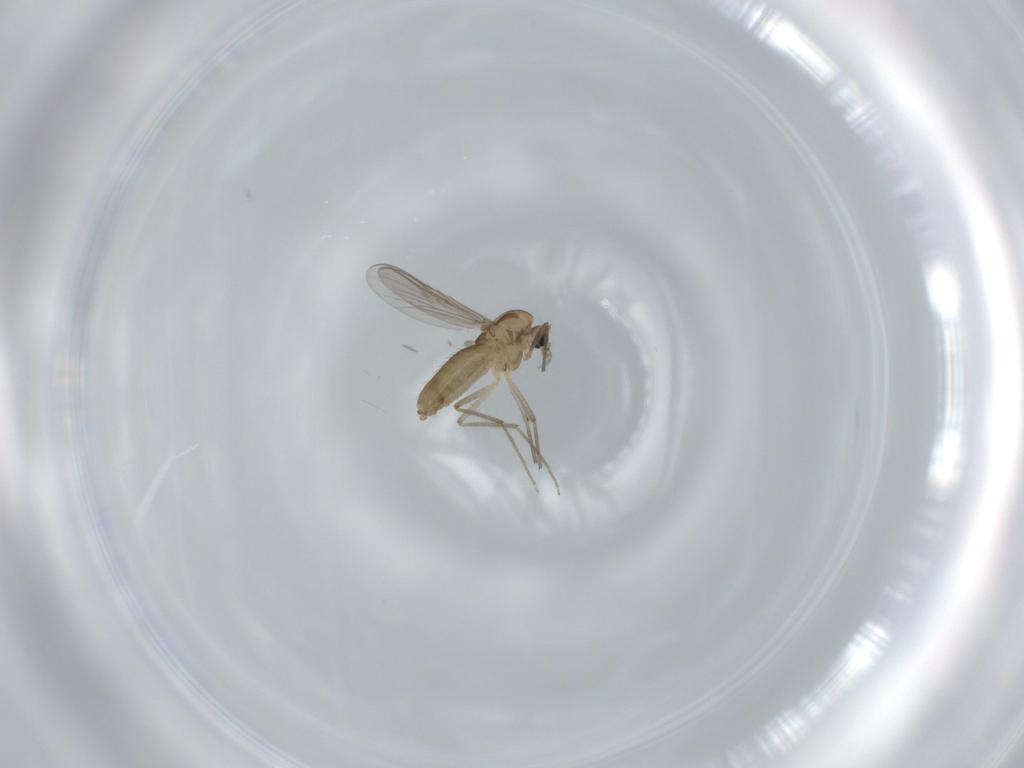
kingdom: Animalia
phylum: Arthropoda
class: Insecta
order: Diptera
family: Chironomidae
